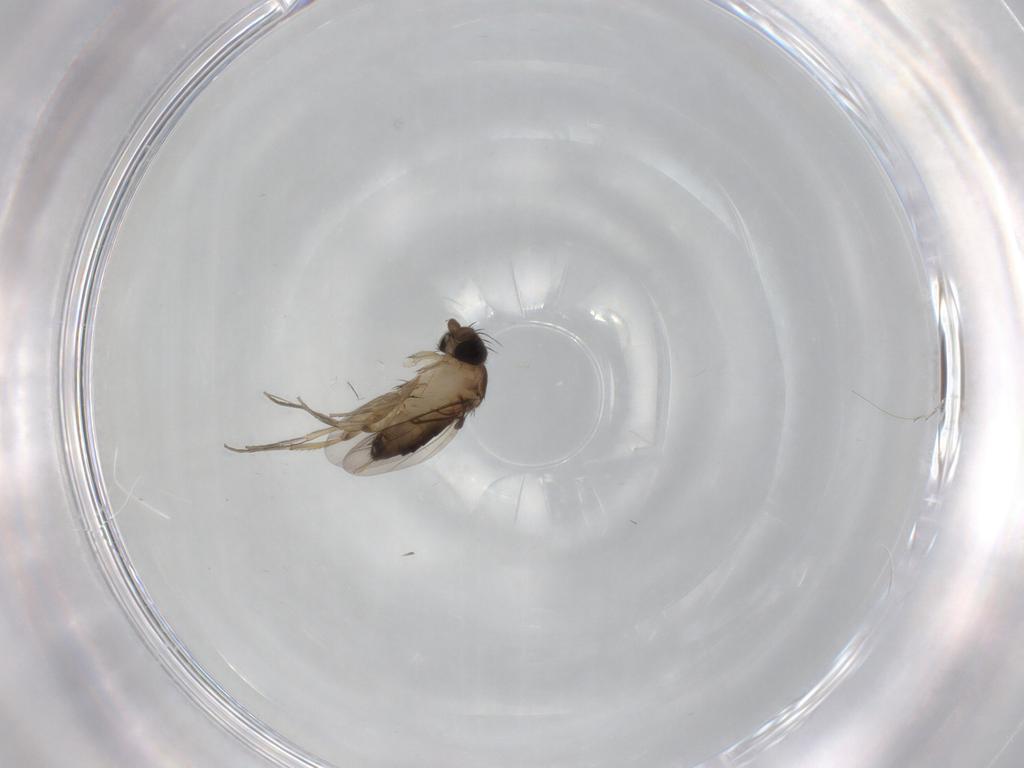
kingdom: Animalia
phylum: Arthropoda
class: Insecta
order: Diptera
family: Phoridae
